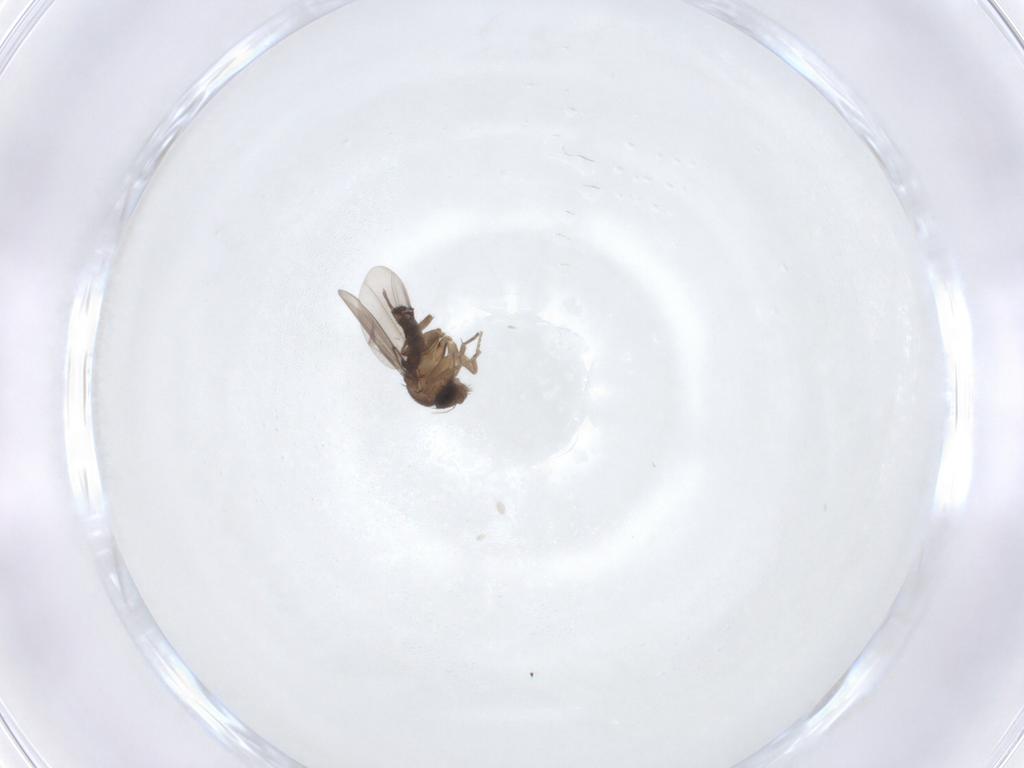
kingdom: Animalia
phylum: Arthropoda
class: Insecta
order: Diptera
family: Phoridae
